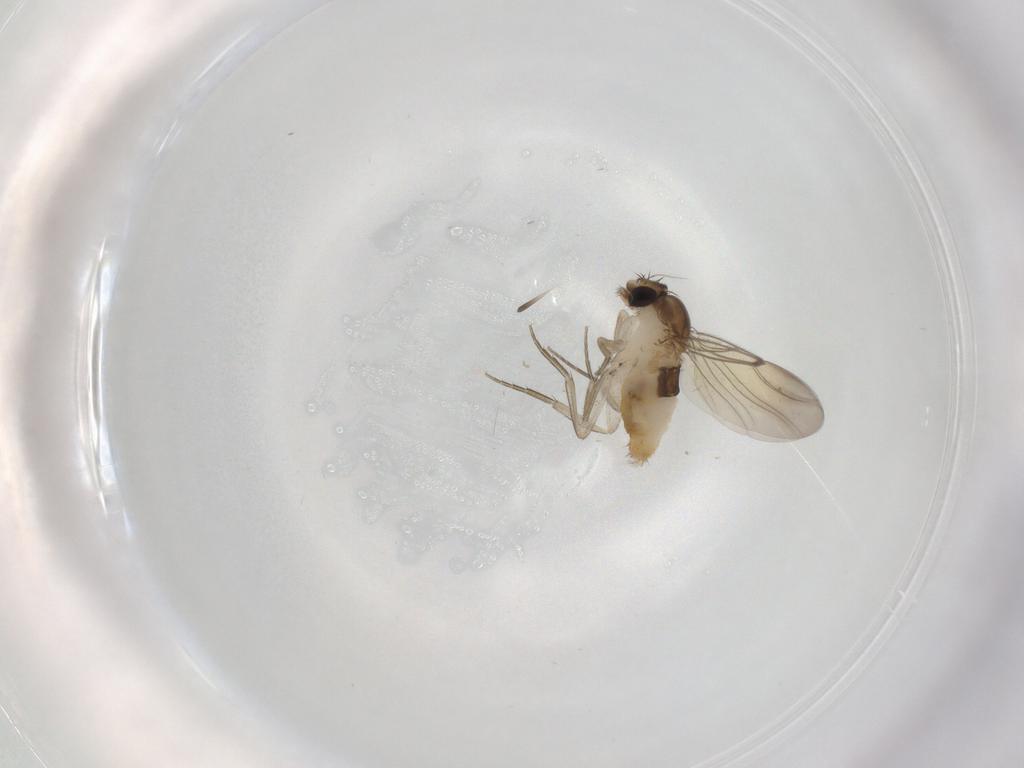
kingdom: Animalia
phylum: Arthropoda
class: Insecta
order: Diptera
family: Phoridae
